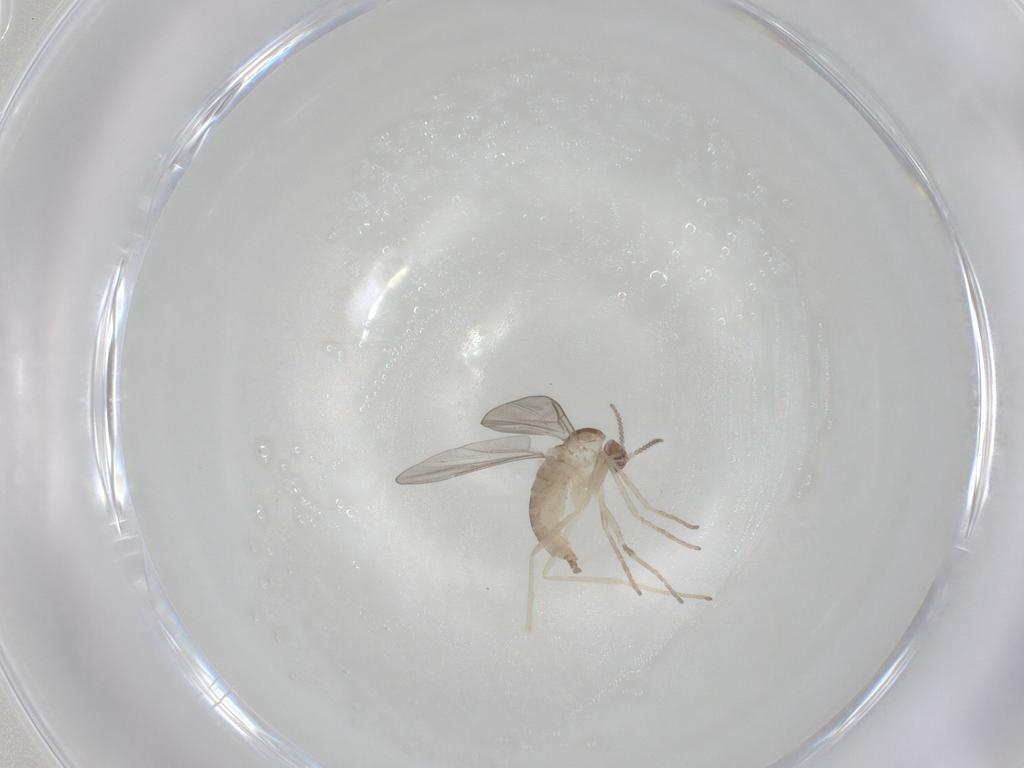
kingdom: Animalia
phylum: Arthropoda
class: Insecta
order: Diptera
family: Cecidomyiidae
